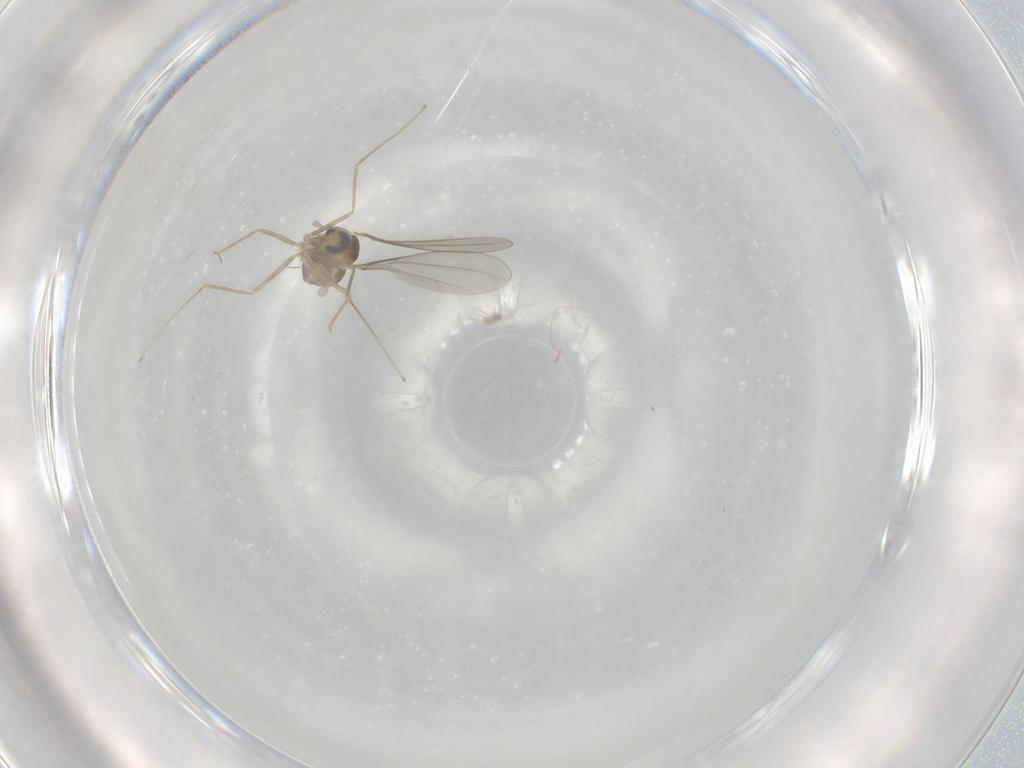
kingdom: Animalia
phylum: Arthropoda
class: Insecta
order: Diptera
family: Cecidomyiidae
